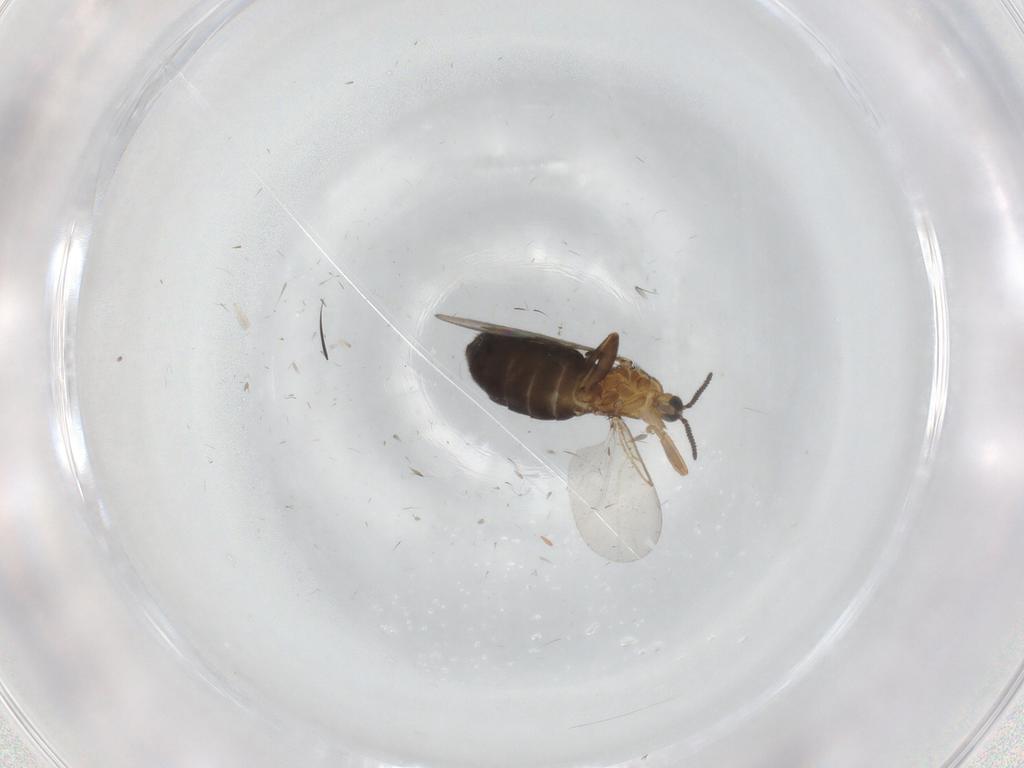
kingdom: Animalia
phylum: Arthropoda
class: Insecta
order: Diptera
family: Scatopsidae
